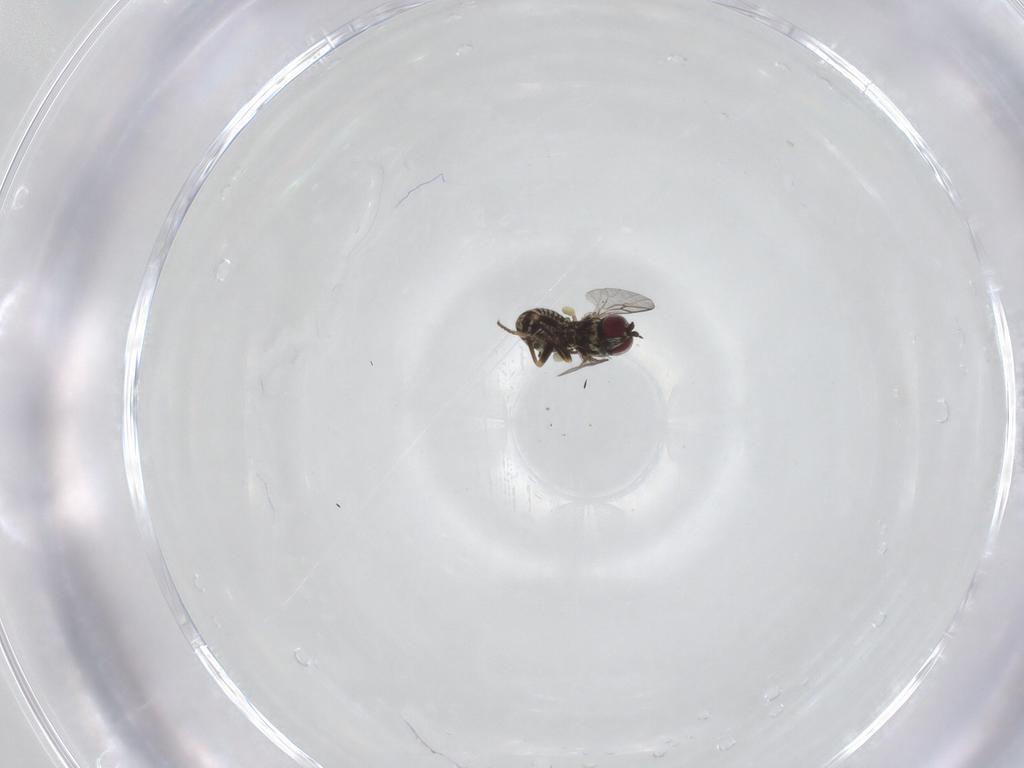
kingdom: Animalia
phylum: Arthropoda
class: Insecta
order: Diptera
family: Mythicomyiidae
